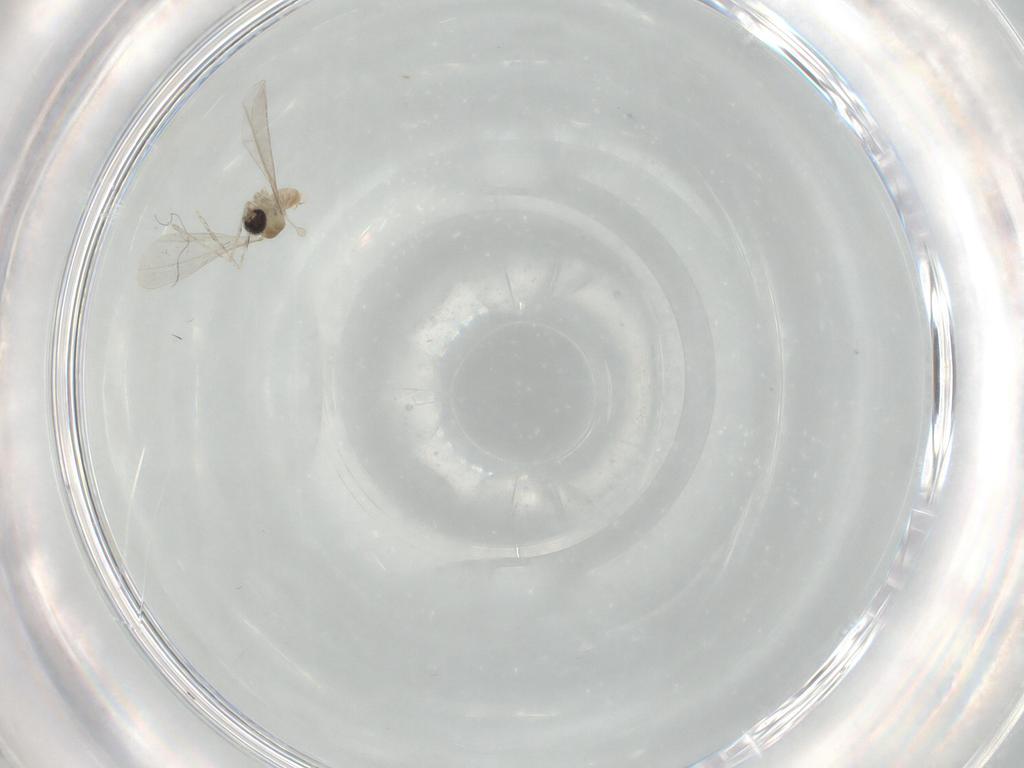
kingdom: Animalia
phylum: Arthropoda
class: Insecta
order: Diptera
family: Cecidomyiidae
